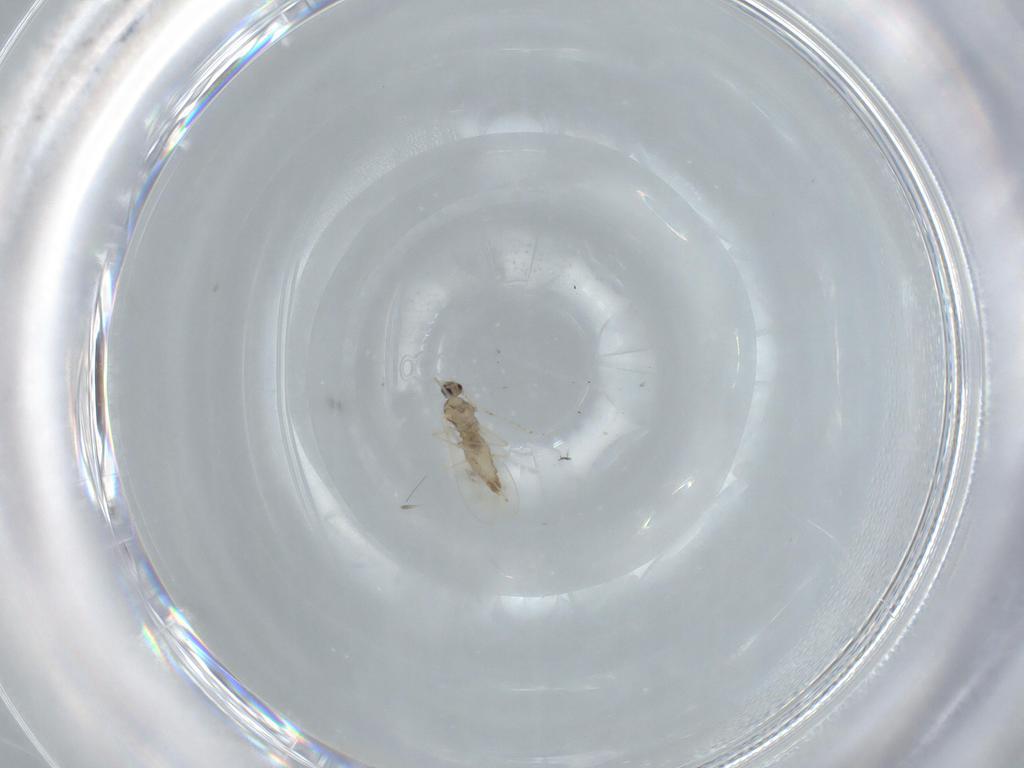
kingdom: Animalia
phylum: Arthropoda
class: Insecta
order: Diptera
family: Cecidomyiidae
